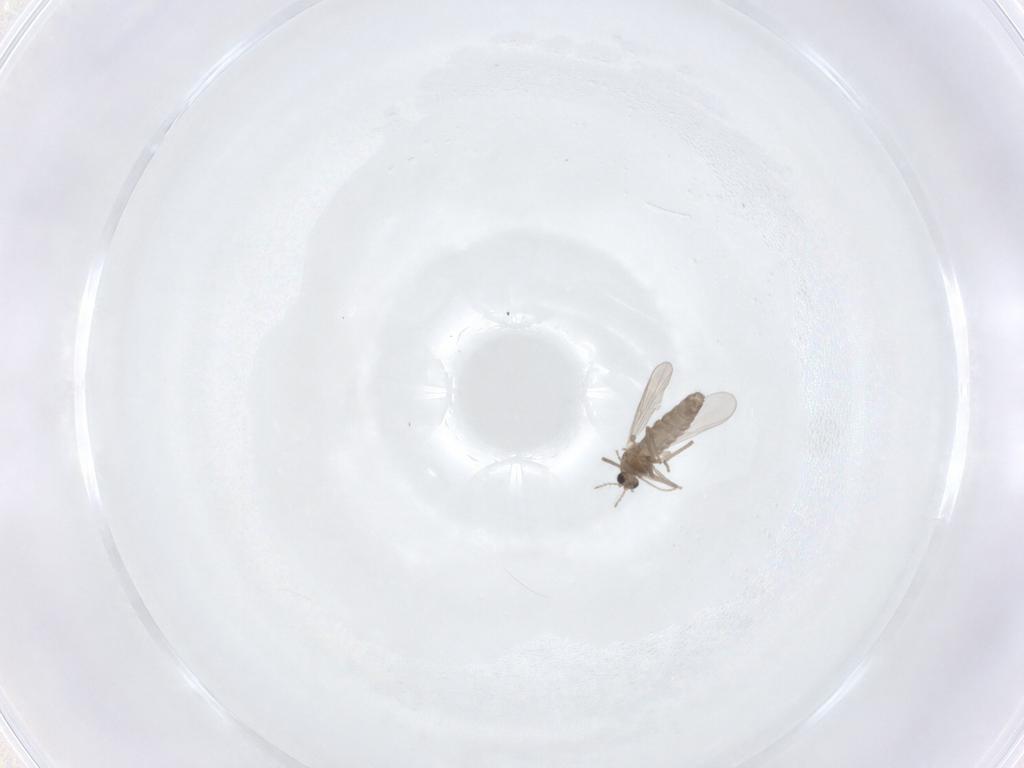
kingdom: Animalia
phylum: Arthropoda
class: Insecta
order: Diptera
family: Chironomidae
